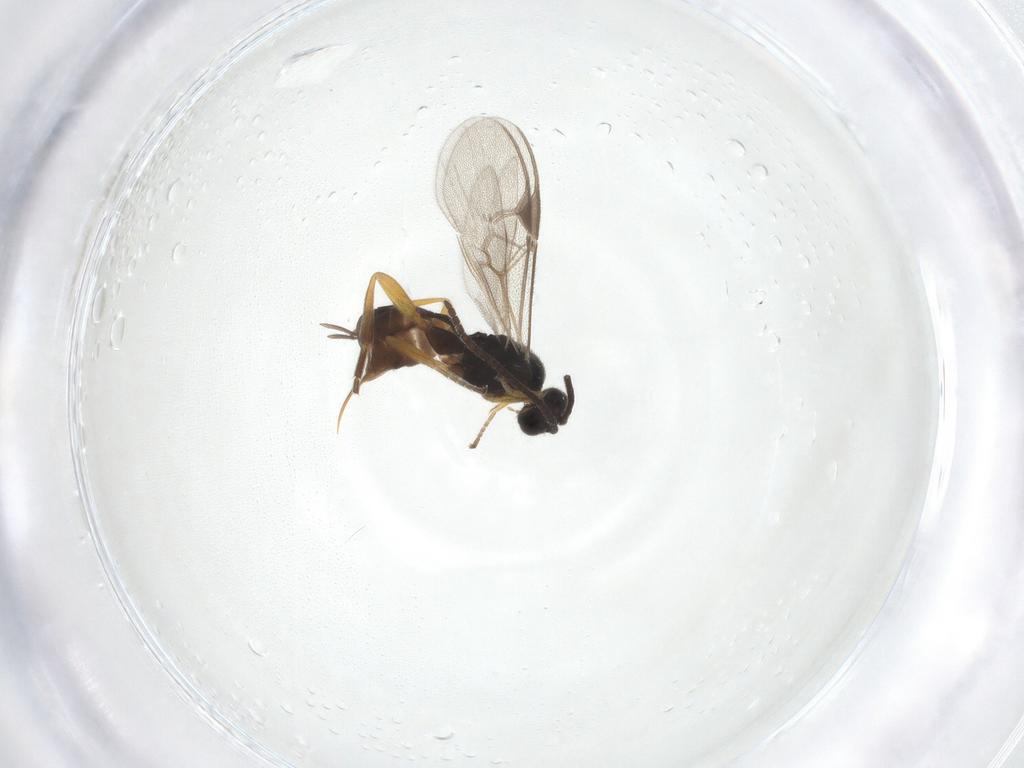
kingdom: Animalia
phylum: Arthropoda
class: Insecta
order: Hymenoptera
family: Braconidae
